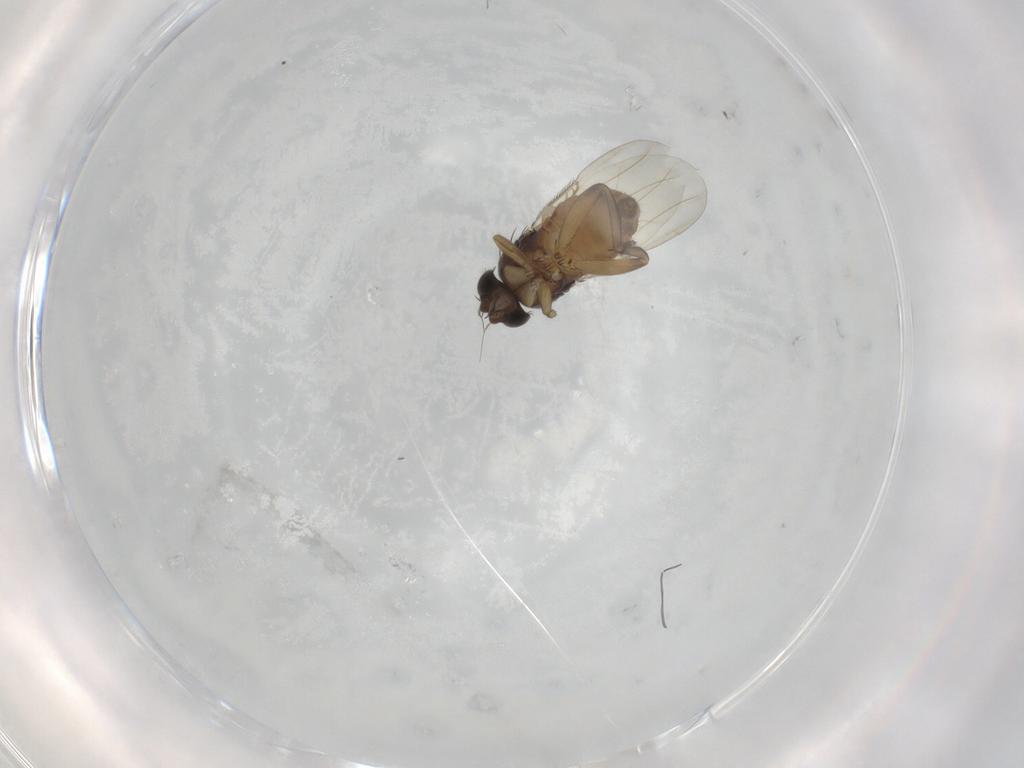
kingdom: Animalia
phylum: Arthropoda
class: Insecta
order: Diptera
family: Phoridae
